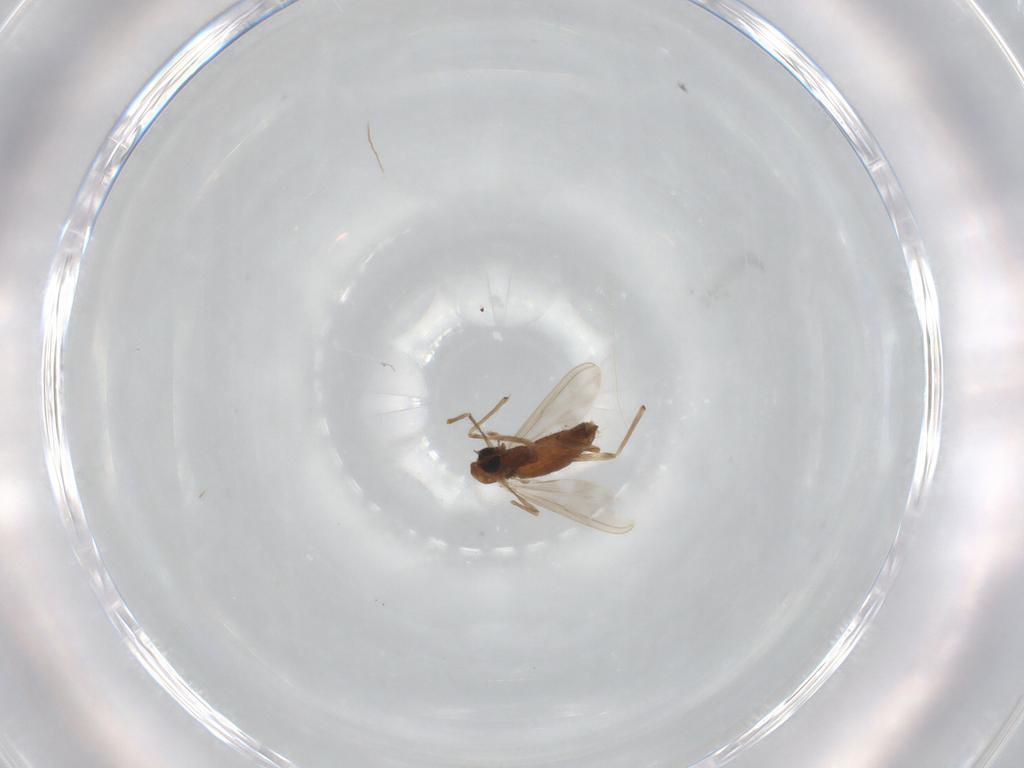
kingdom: Animalia
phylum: Arthropoda
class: Insecta
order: Diptera
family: Chironomidae
